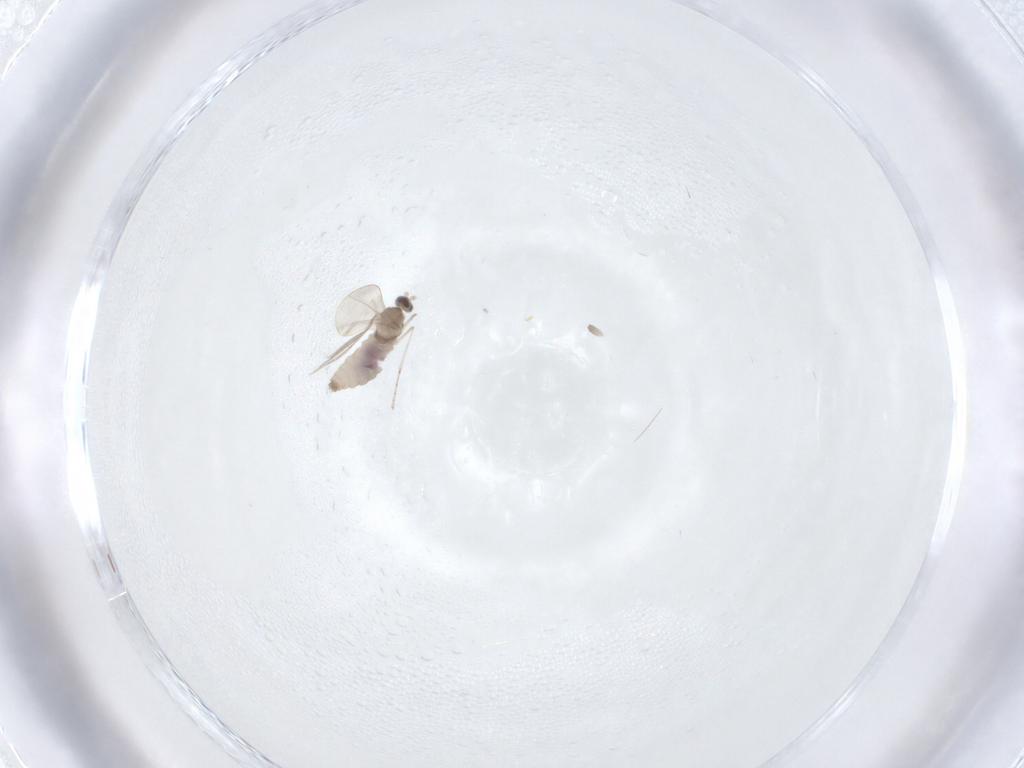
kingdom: Animalia
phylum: Arthropoda
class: Insecta
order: Diptera
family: Cecidomyiidae
